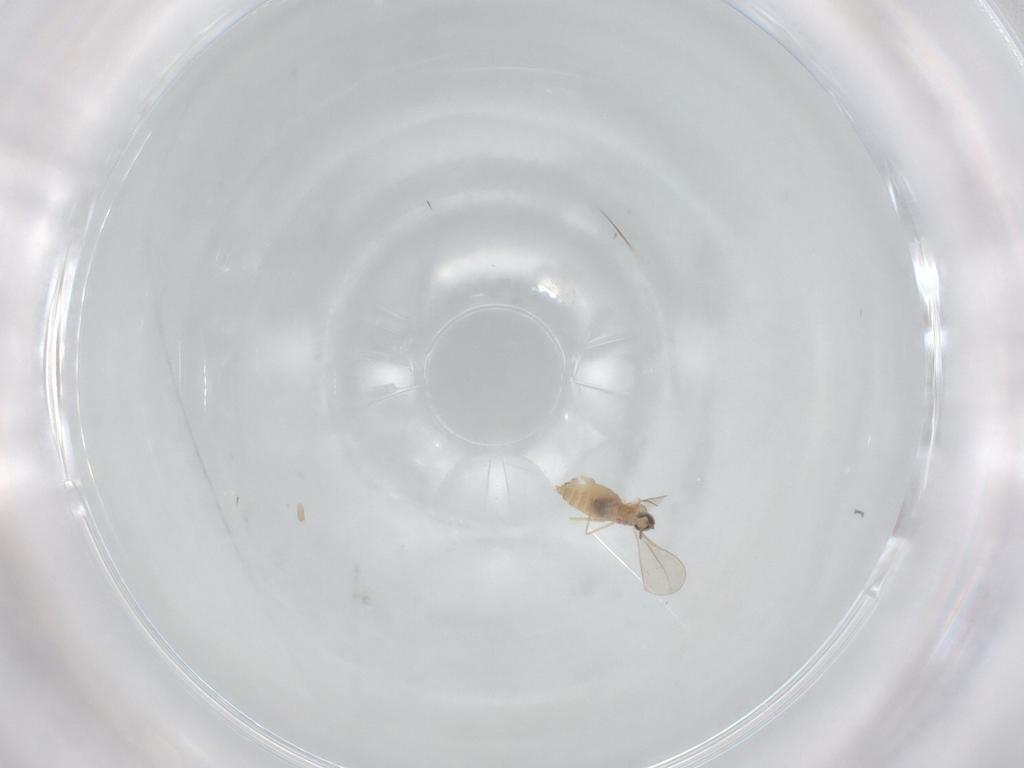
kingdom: Animalia
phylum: Arthropoda
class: Insecta
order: Diptera
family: Cecidomyiidae
